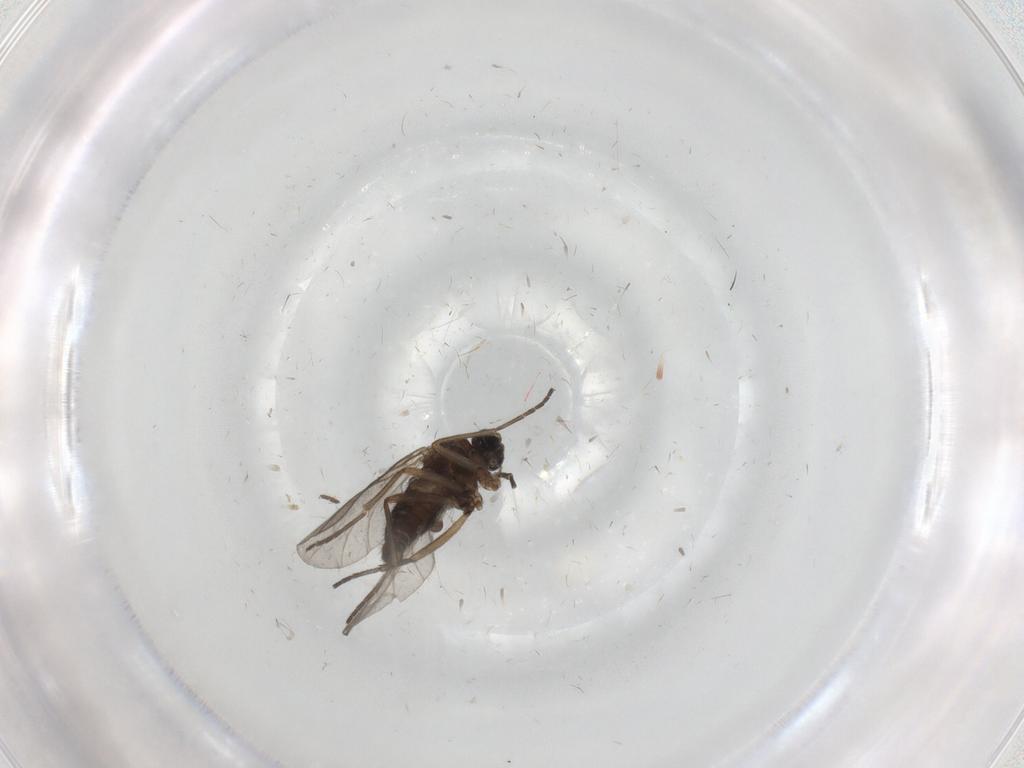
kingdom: Animalia
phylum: Arthropoda
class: Insecta
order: Diptera
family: Sciaridae
